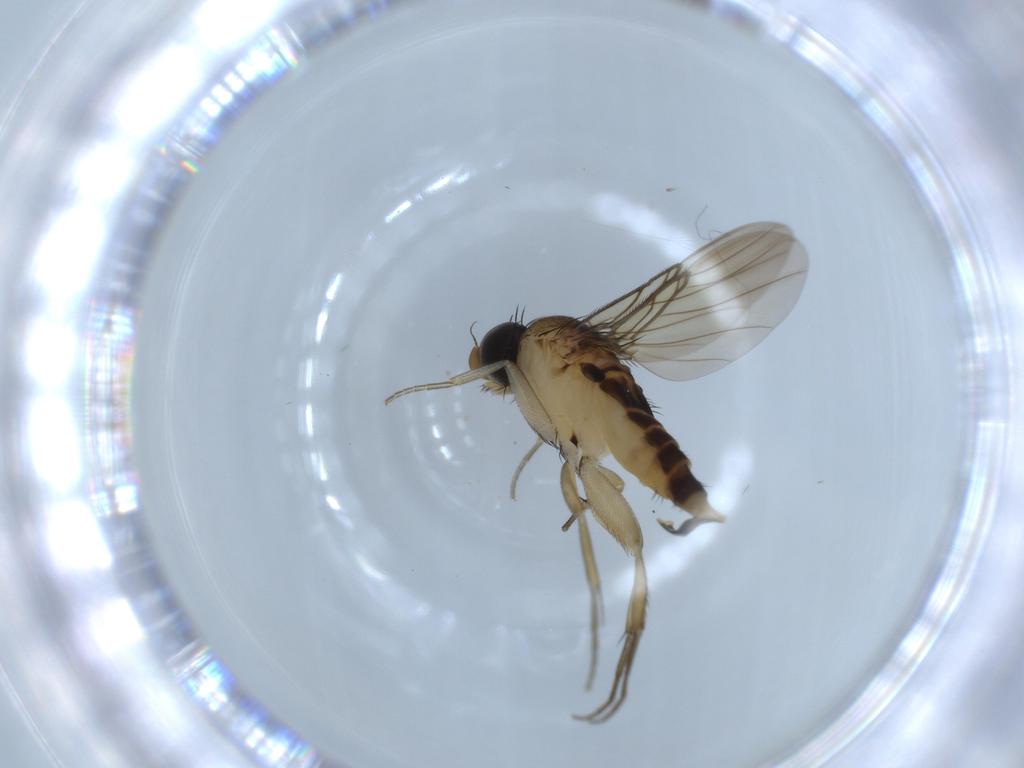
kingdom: Animalia
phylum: Arthropoda
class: Insecta
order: Diptera
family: Phoridae
